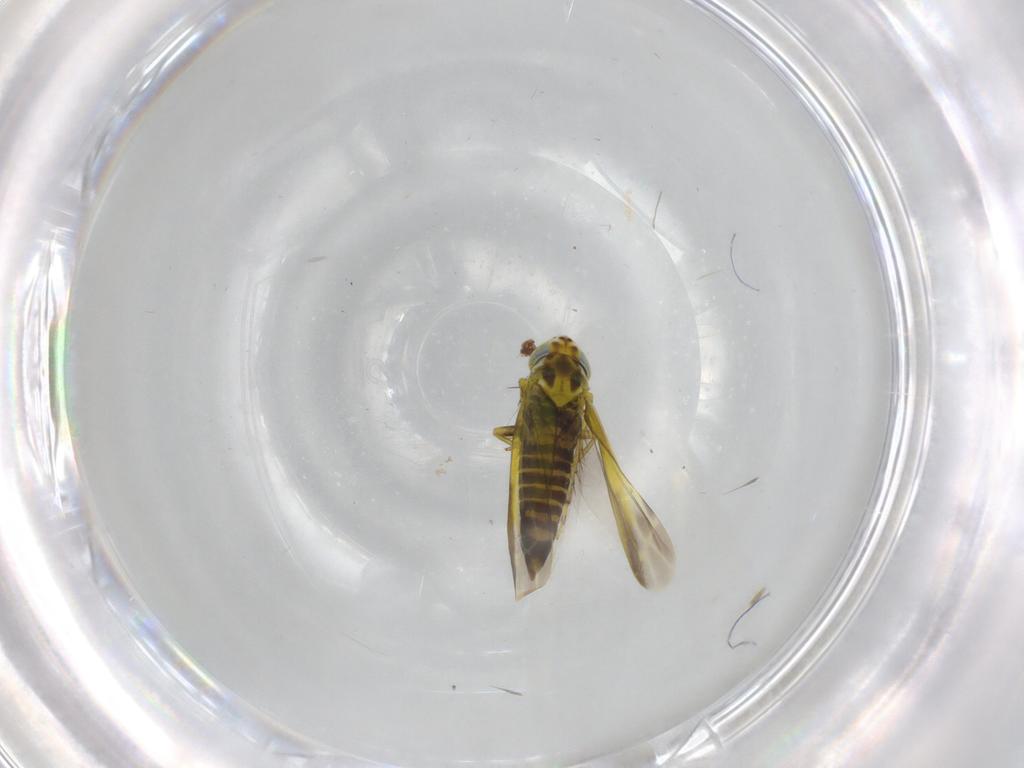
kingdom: Animalia
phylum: Arthropoda
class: Insecta
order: Hemiptera
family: Cicadellidae
